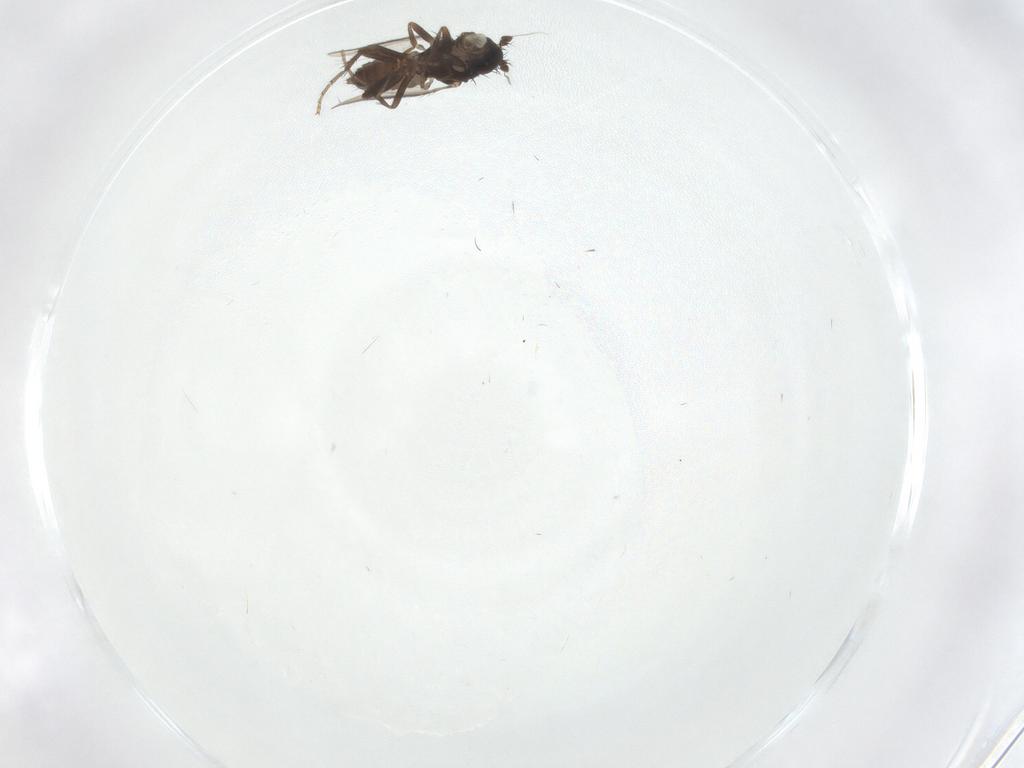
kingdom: Animalia
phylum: Arthropoda
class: Insecta
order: Diptera
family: Sphaeroceridae
